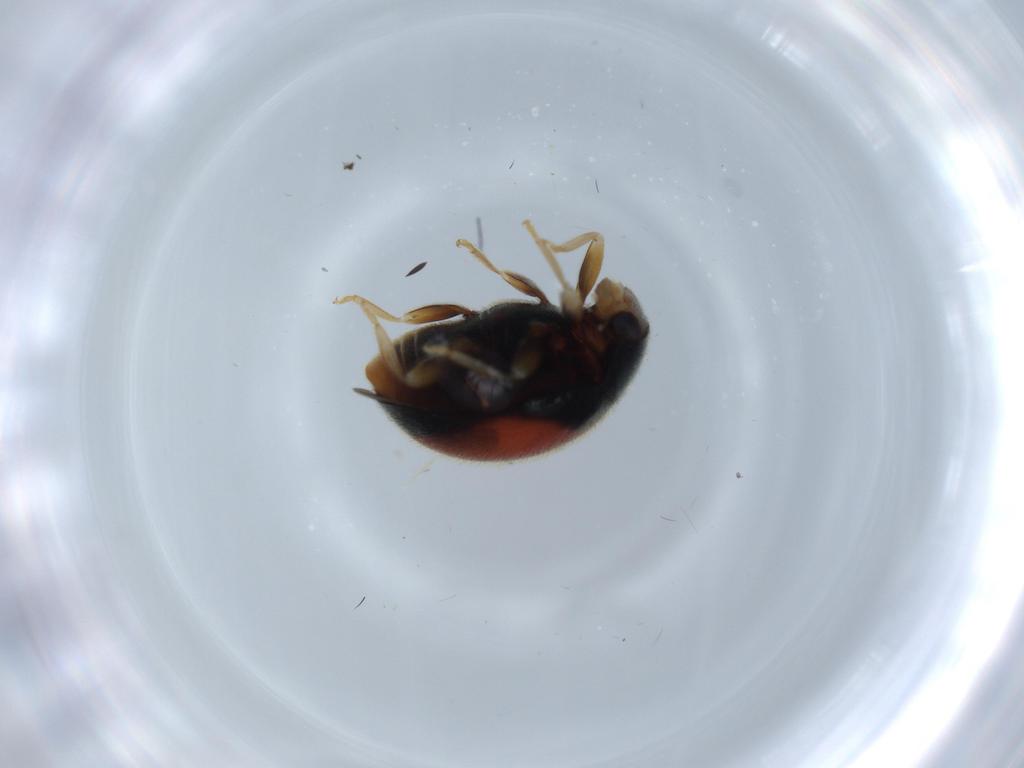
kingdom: Animalia
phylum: Arthropoda
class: Insecta
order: Coleoptera
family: Coccinellidae
